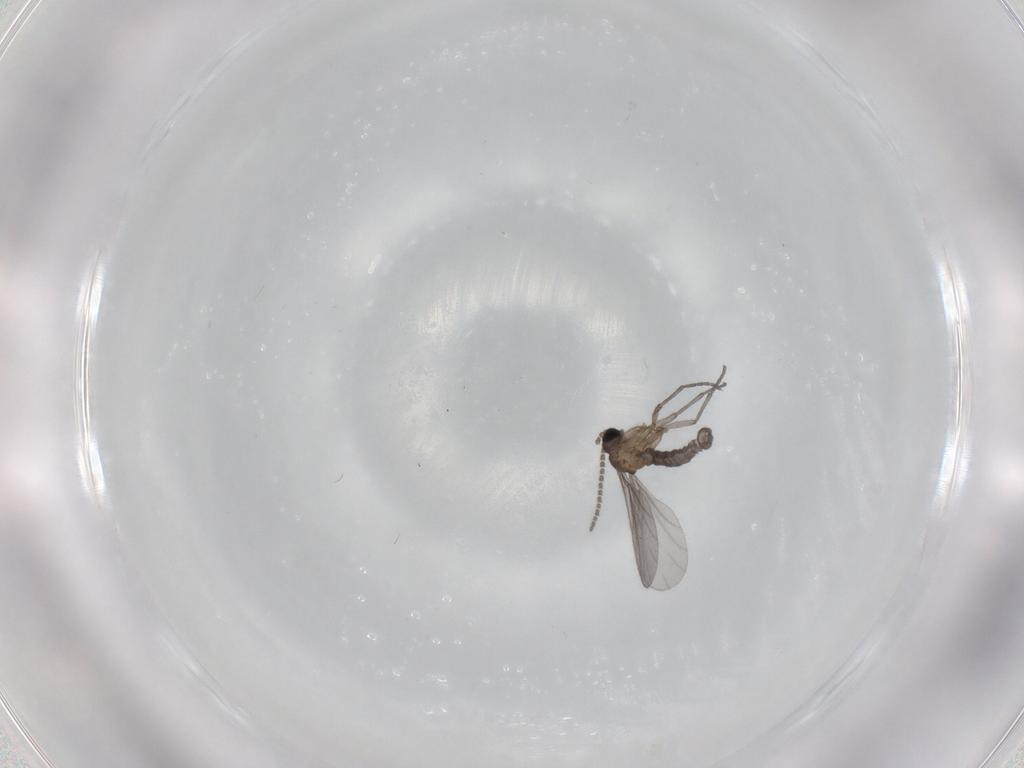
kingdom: Animalia
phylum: Arthropoda
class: Insecta
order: Diptera
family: Sciaridae
